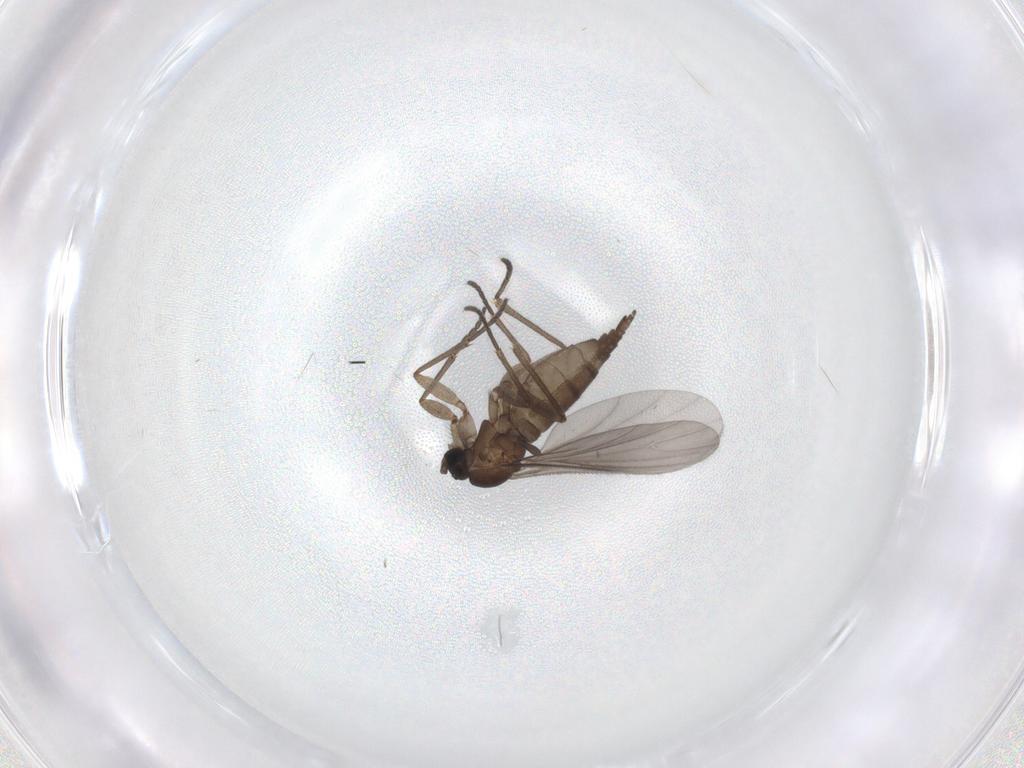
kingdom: Animalia
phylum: Arthropoda
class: Insecta
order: Diptera
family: Sciaridae
